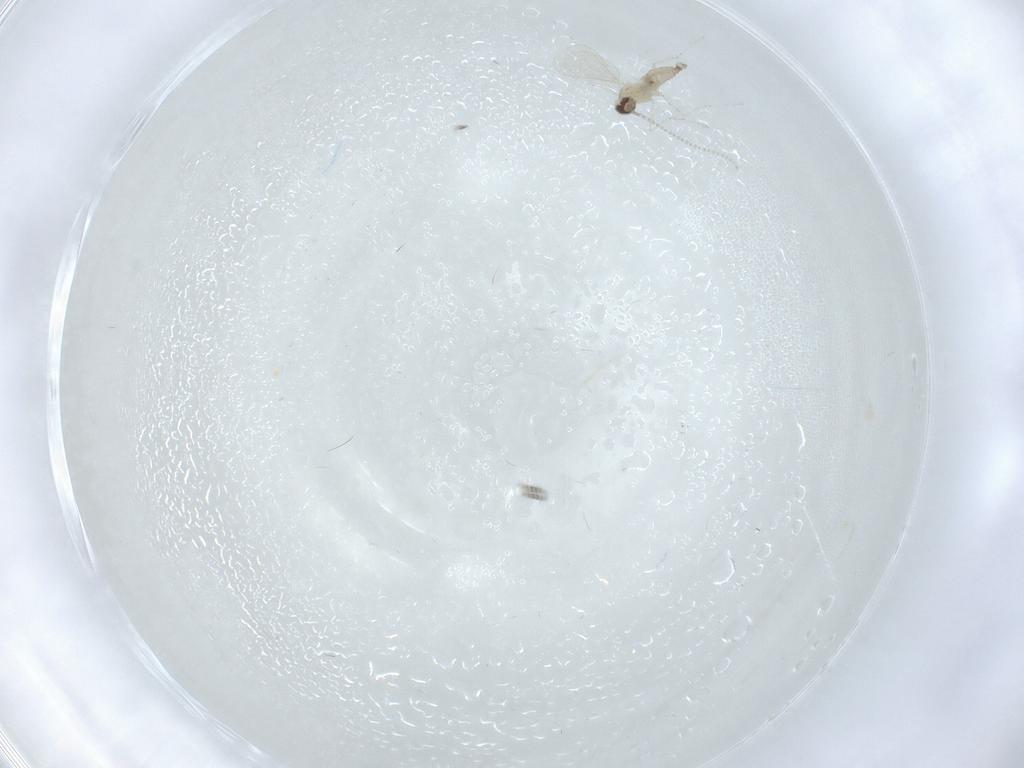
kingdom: Animalia
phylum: Arthropoda
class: Insecta
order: Diptera
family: Cecidomyiidae
